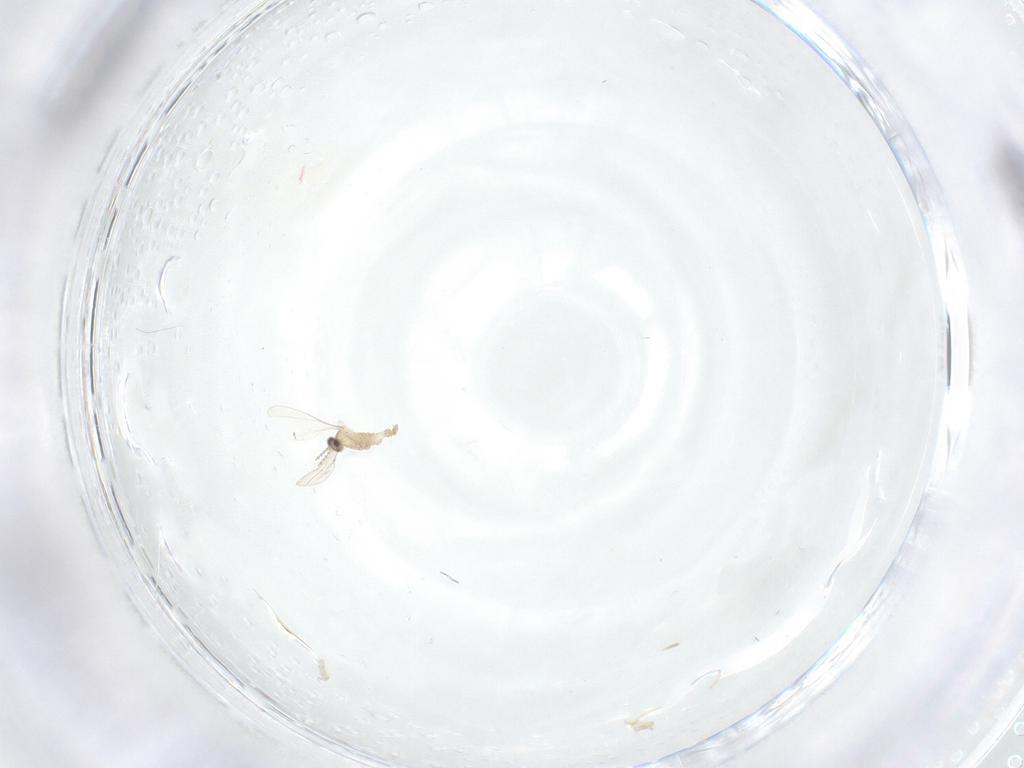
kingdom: Animalia
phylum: Arthropoda
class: Insecta
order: Diptera
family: Cecidomyiidae
